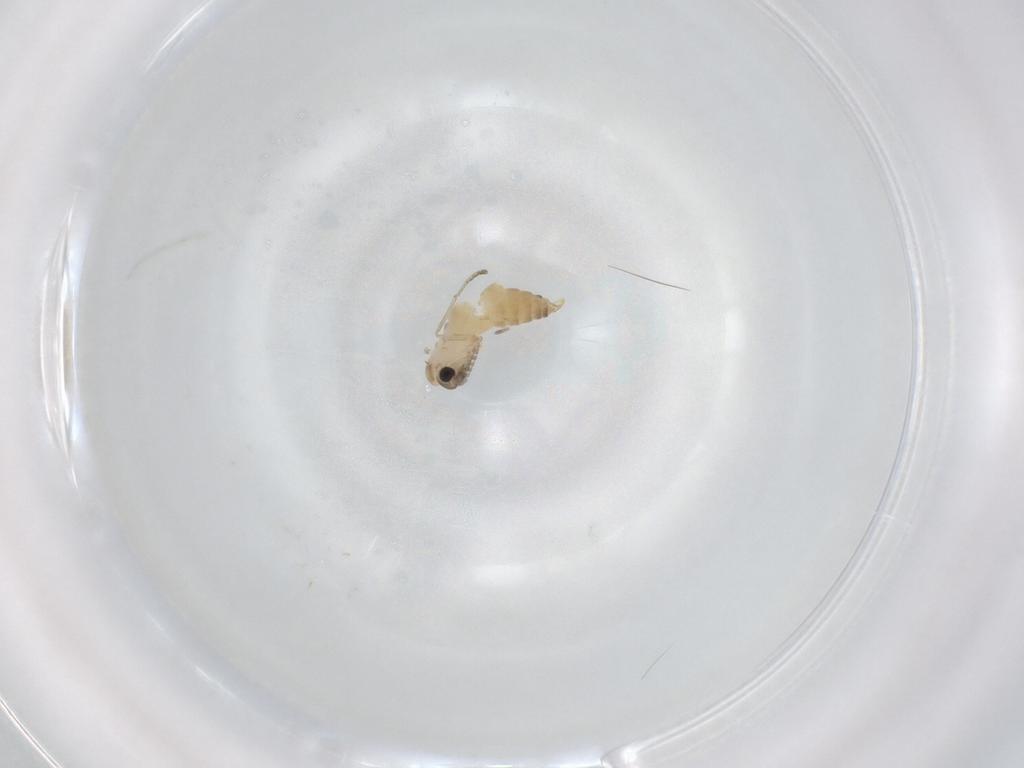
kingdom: Animalia
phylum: Arthropoda
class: Insecta
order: Diptera
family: Psychodidae
